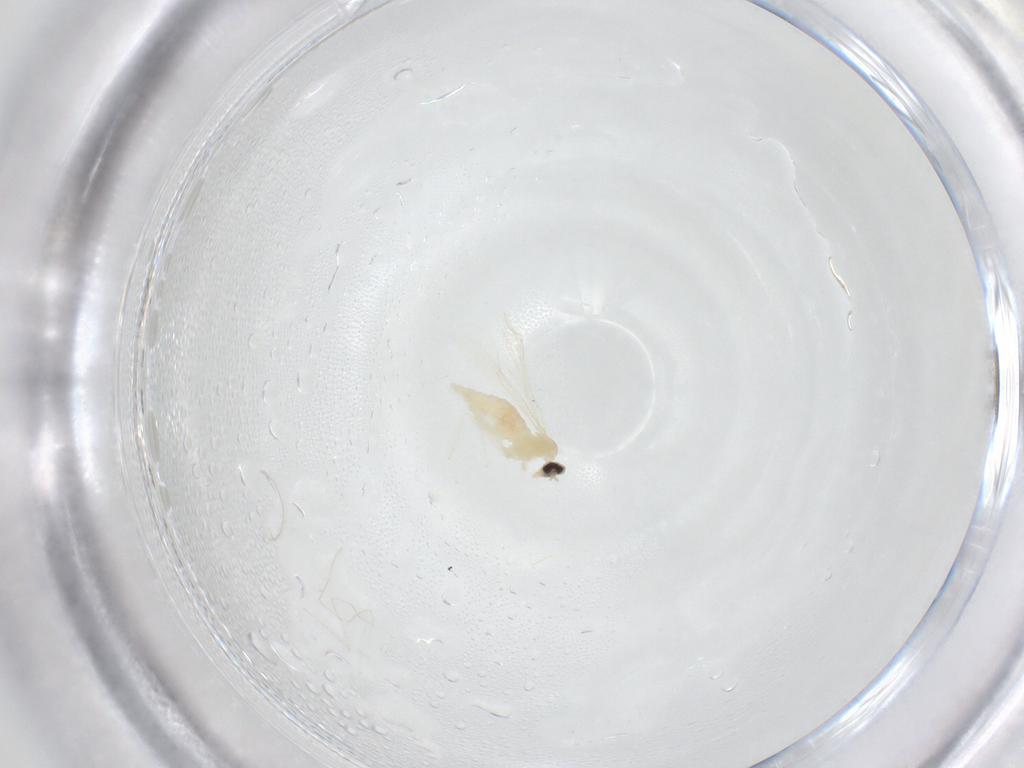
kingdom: Animalia
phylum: Arthropoda
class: Insecta
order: Diptera
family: Cecidomyiidae
